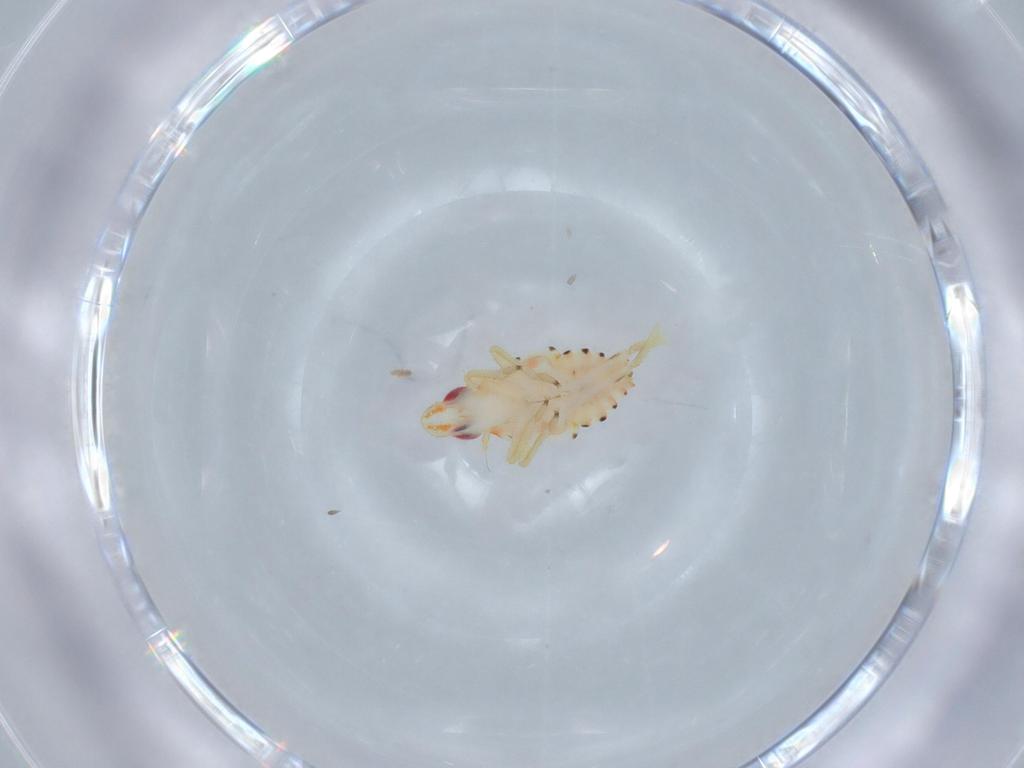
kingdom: Animalia
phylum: Arthropoda
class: Insecta
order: Hemiptera
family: Tropiduchidae
